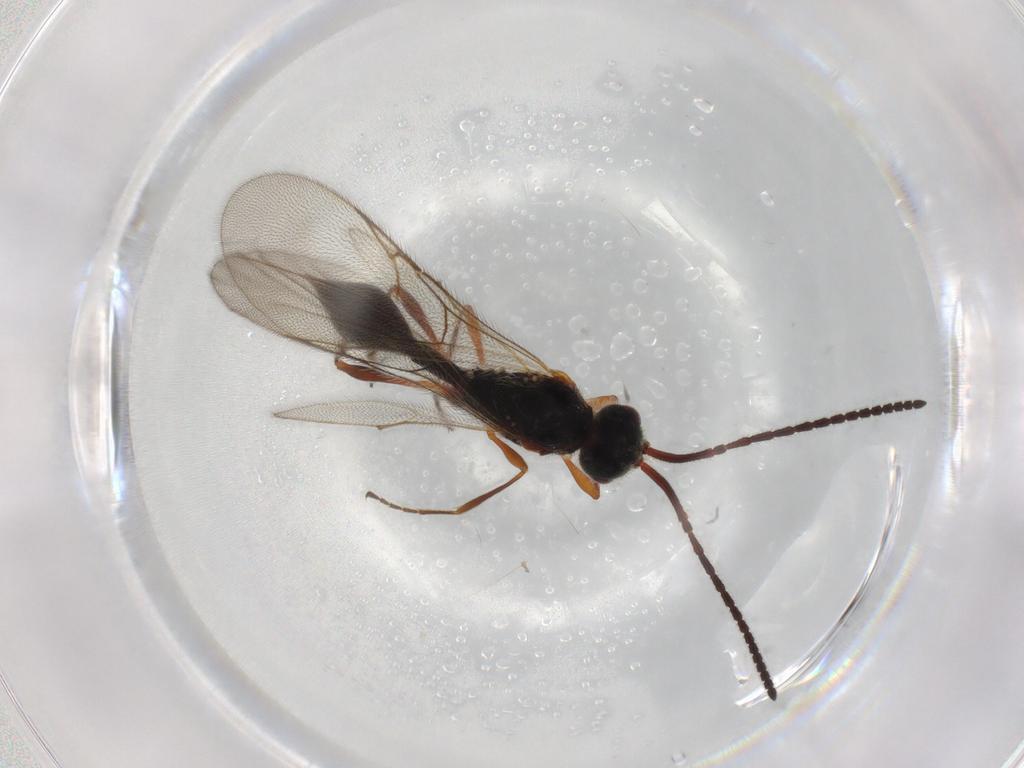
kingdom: Animalia
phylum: Arthropoda
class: Insecta
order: Hymenoptera
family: Diapriidae
